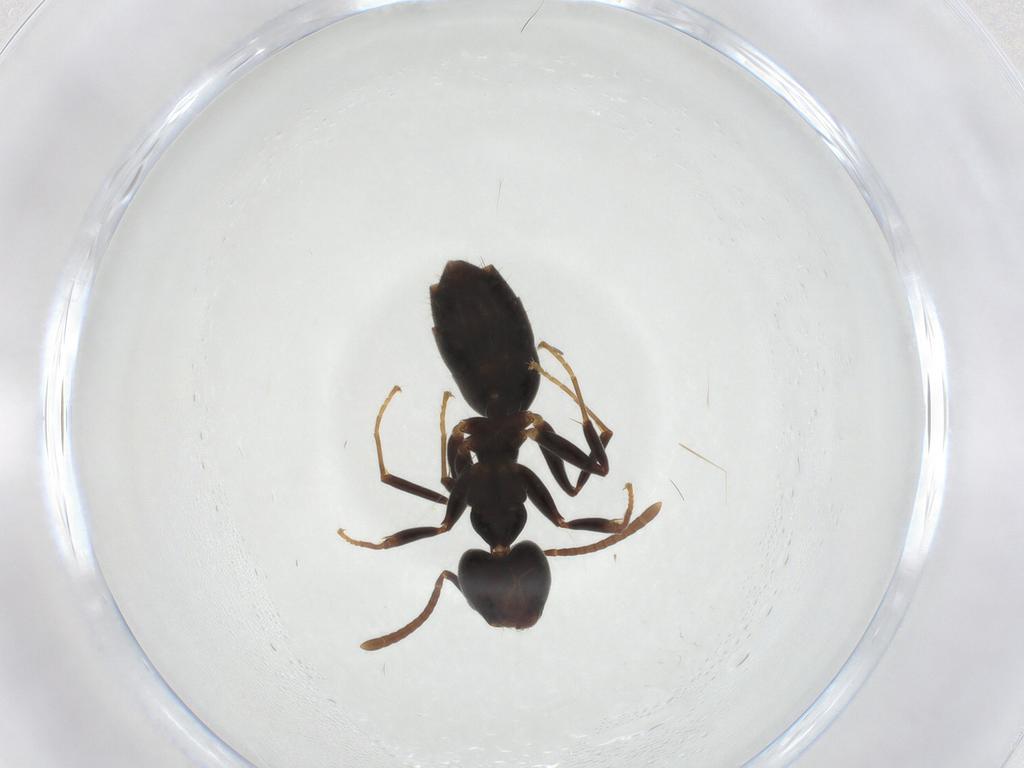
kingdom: Animalia
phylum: Arthropoda
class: Insecta
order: Hymenoptera
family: Formicidae
